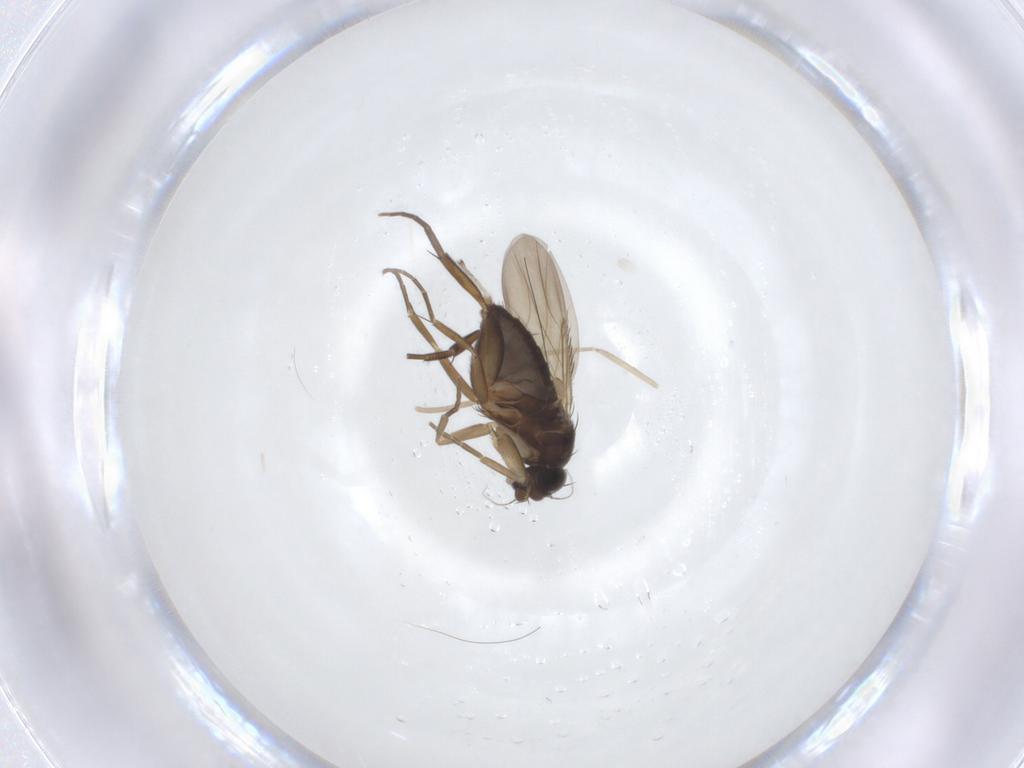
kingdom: Animalia
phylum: Arthropoda
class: Insecta
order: Diptera
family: Phoridae
